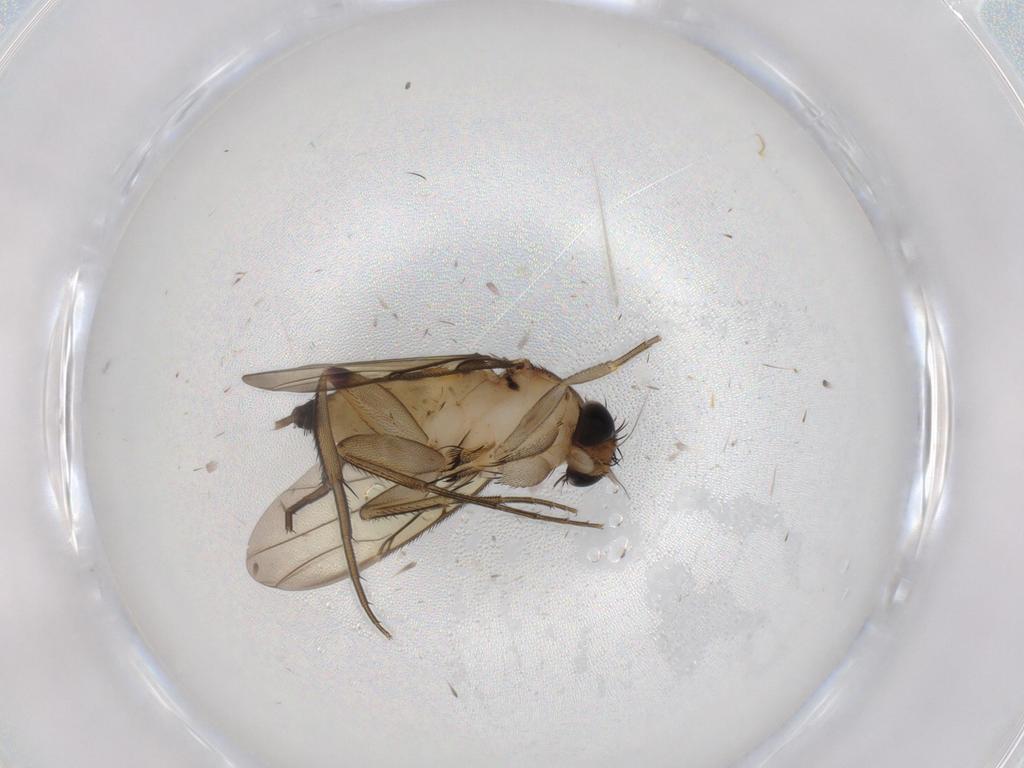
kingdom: Animalia
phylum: Arthropoda
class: Insecta
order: Diptera
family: Phoridae
